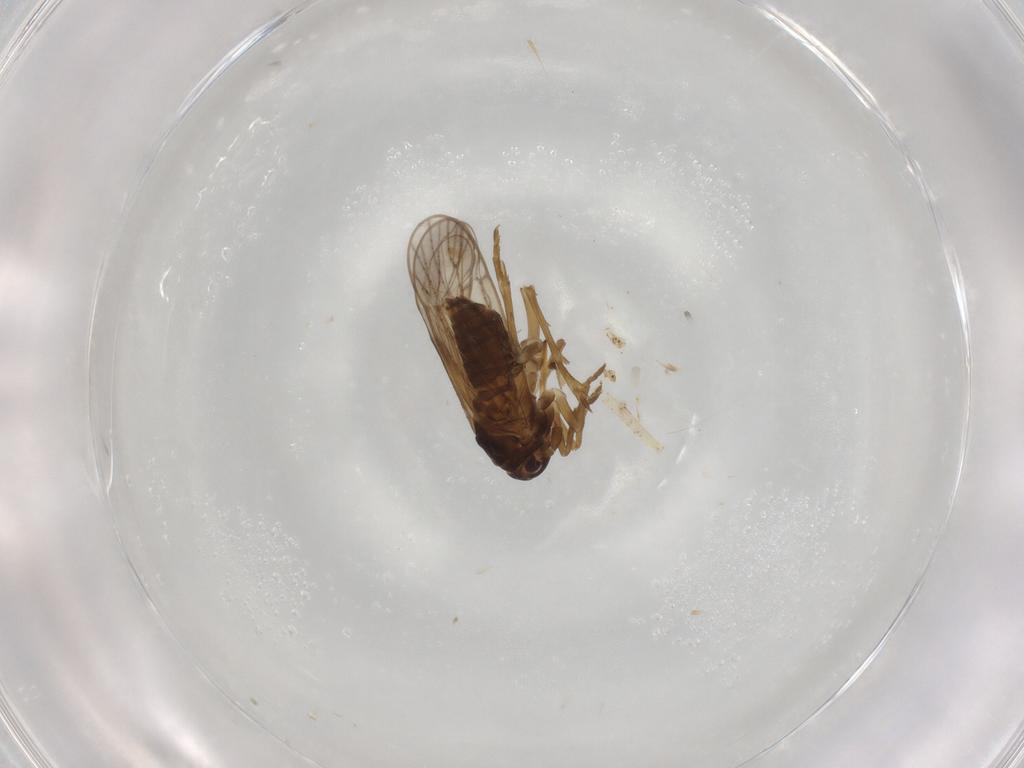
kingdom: Animalia
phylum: Arthropoda
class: Insecta
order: Hemiptera
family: Delphacidae
